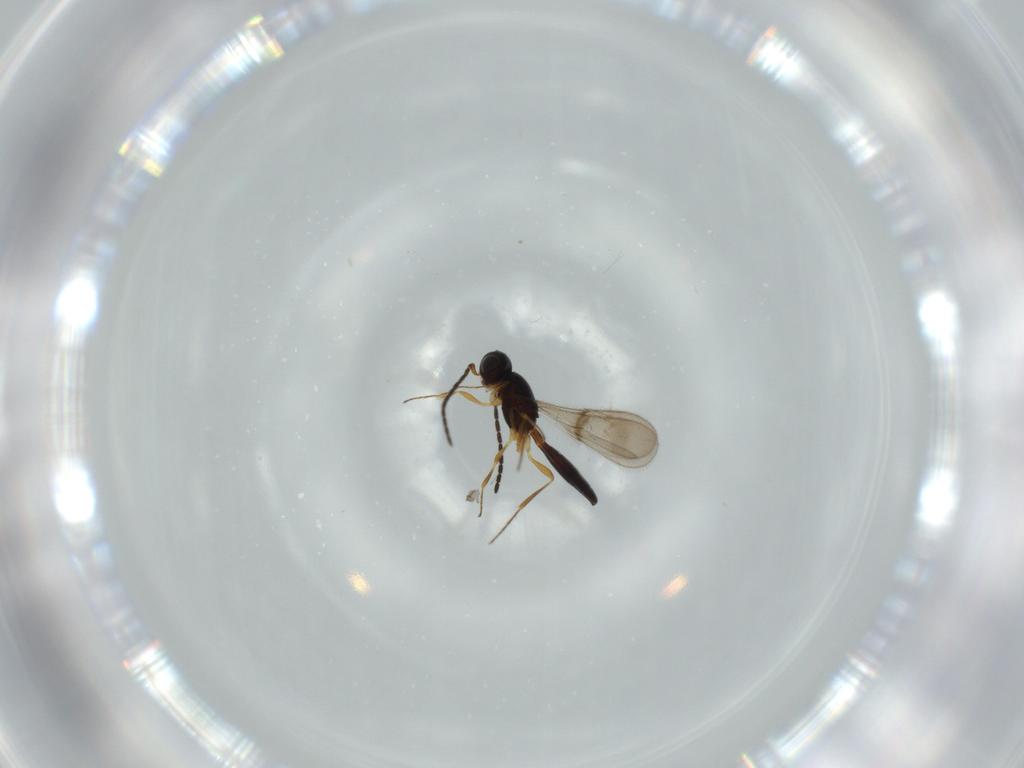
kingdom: Animalia
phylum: Arthropoda
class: Insecta
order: Hymenoptera
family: Scelionidae
